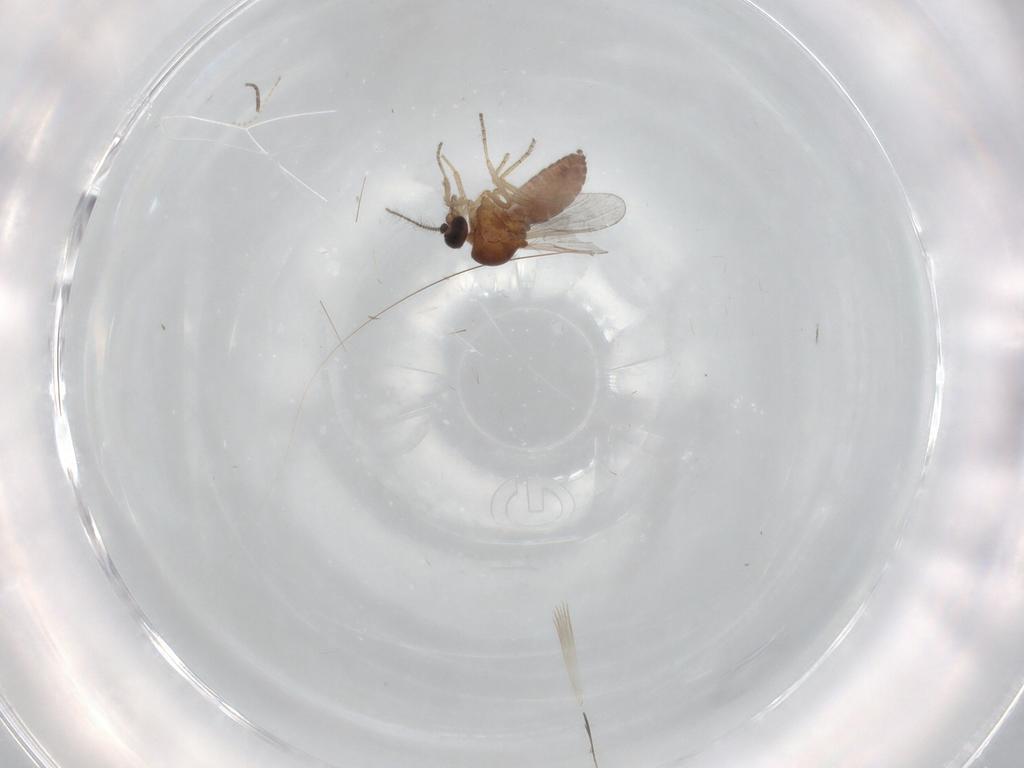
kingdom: Animalia
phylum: Arthropoda
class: Insecta
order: Diptera
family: Cecidomyiidae
